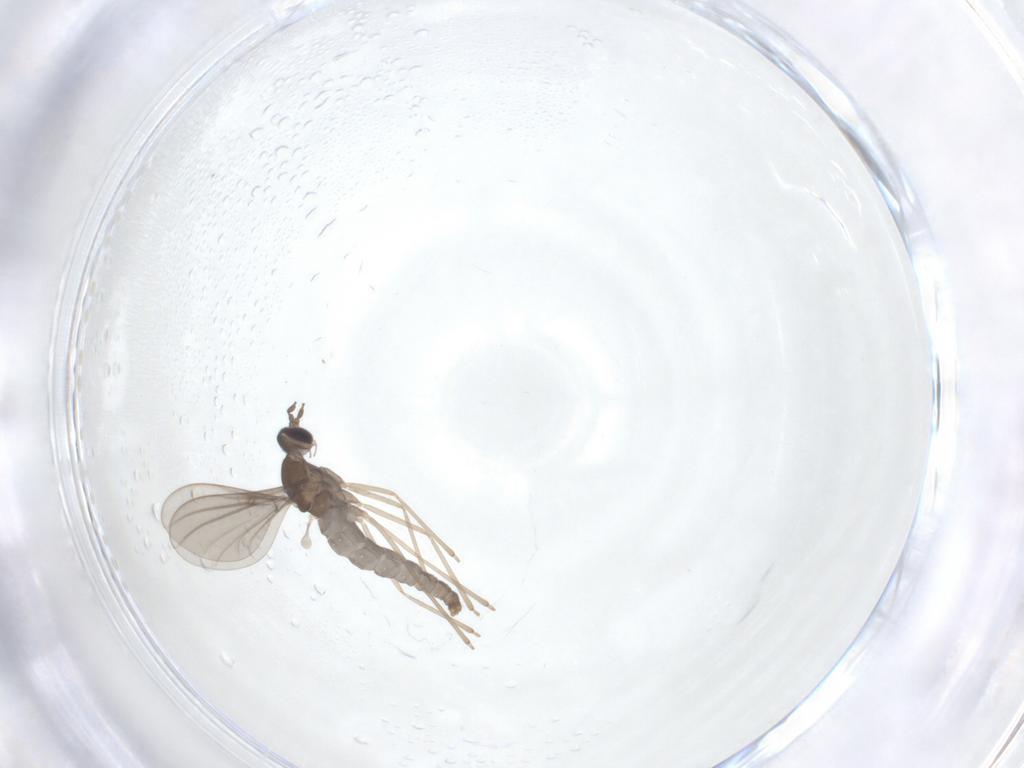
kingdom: Animalia
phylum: Arthropoda
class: Insecta
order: Diptera
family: Cecidomyiidae
